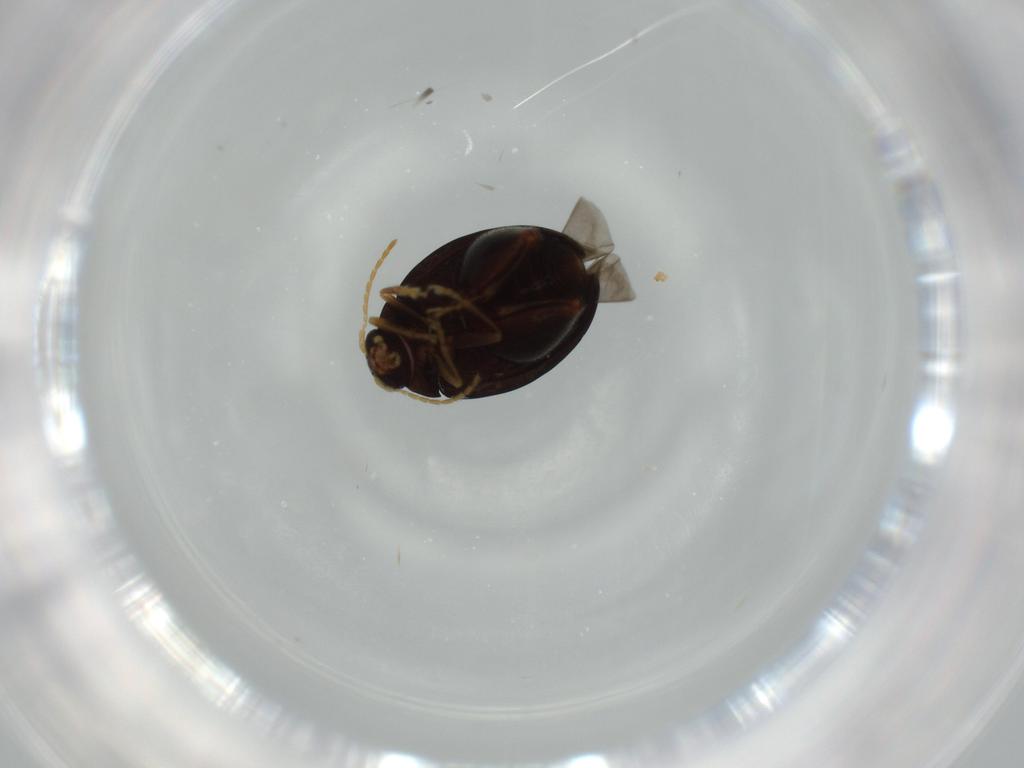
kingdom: Animalia
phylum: Arthropoda
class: Insecta
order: Coleoptera
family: Chrysomelidae
